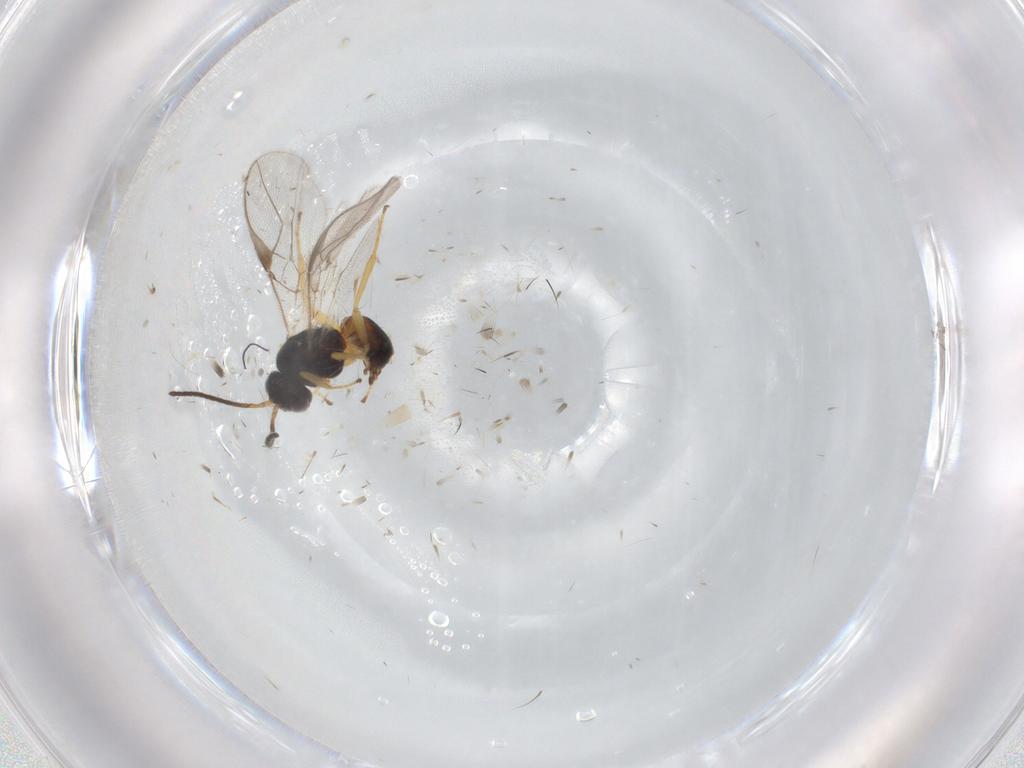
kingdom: Animalia
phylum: Arthropoda
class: Insecta
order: Hymenoptera
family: Braconidae
